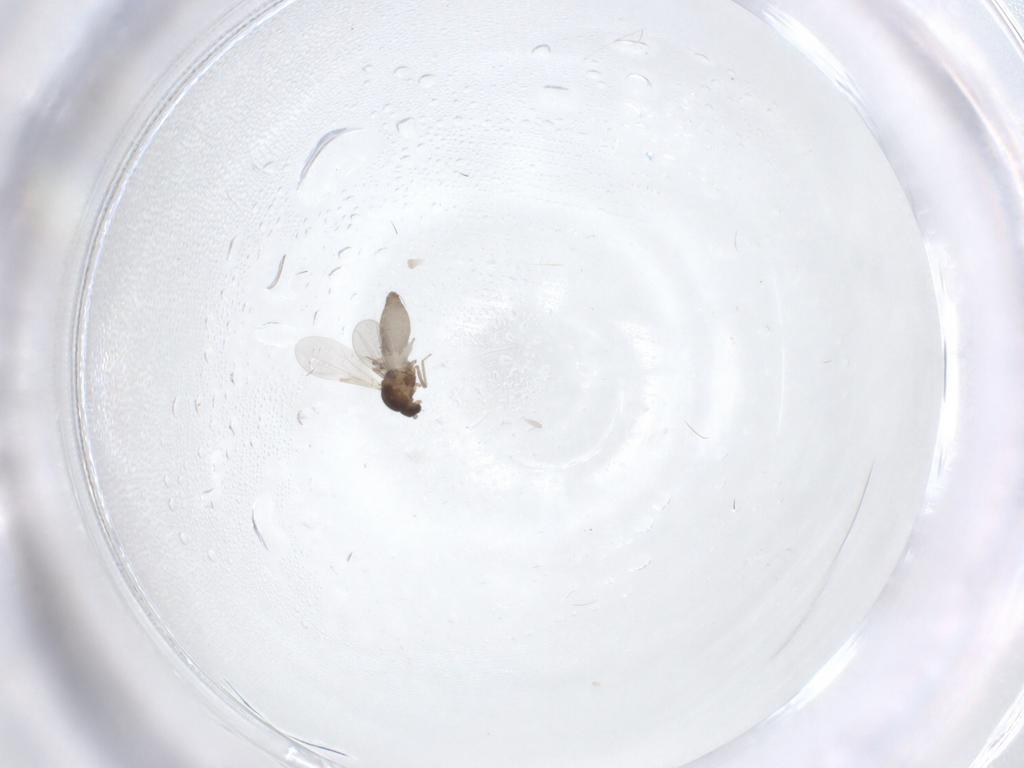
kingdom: Animalia
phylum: Arthropoda
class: Insecta
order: Diptera
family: Ceratopogonidae
